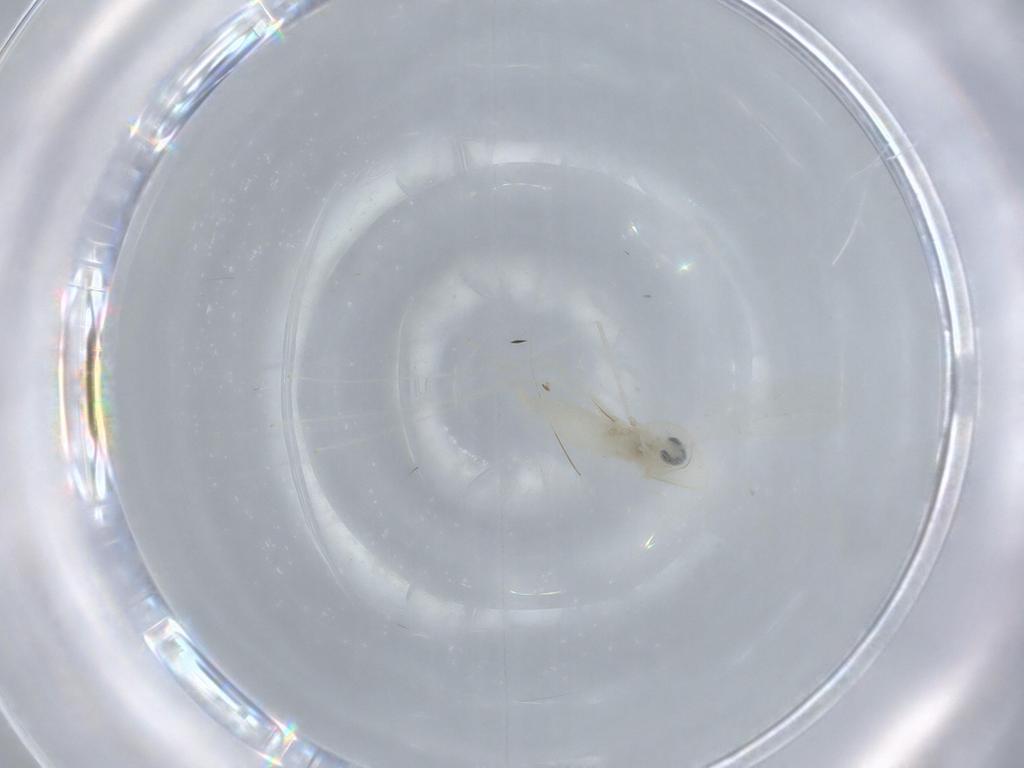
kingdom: Animalia
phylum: Arthropoda
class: Insecta
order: Diptera
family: Cecidomyiidae
